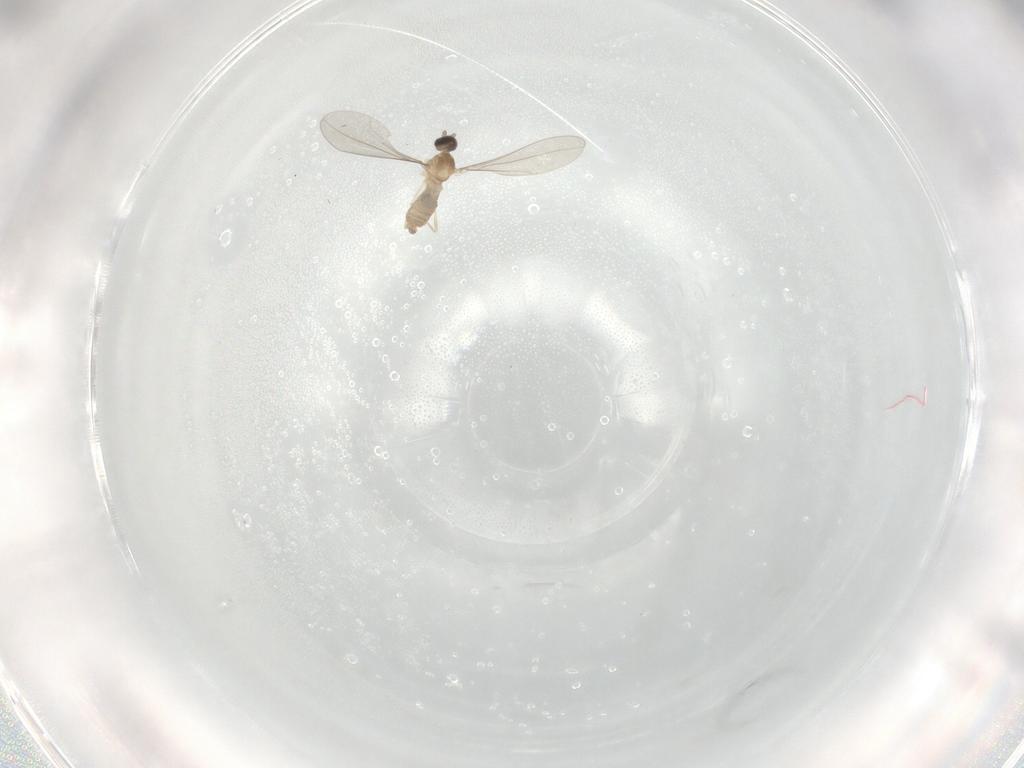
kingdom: Animalia
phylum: Arthropoda
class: Insecta
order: Diptera
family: Cecidomyiidae
